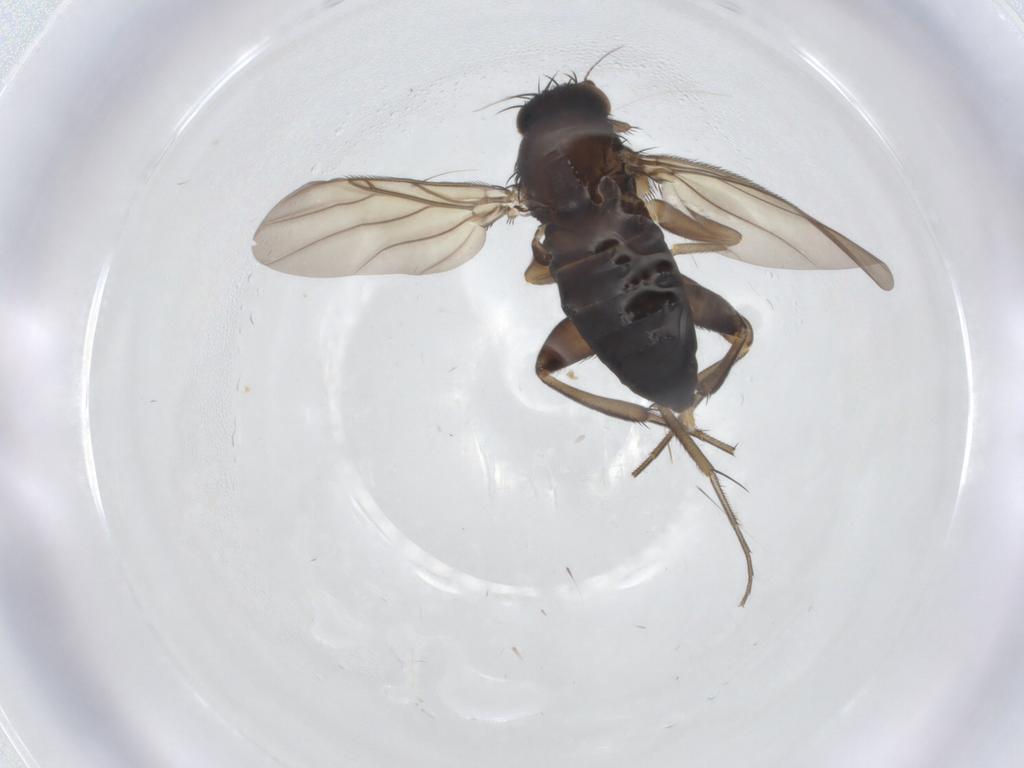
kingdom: Animalia
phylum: Arthropoda
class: Insecta
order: Diptera
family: Phoridae
